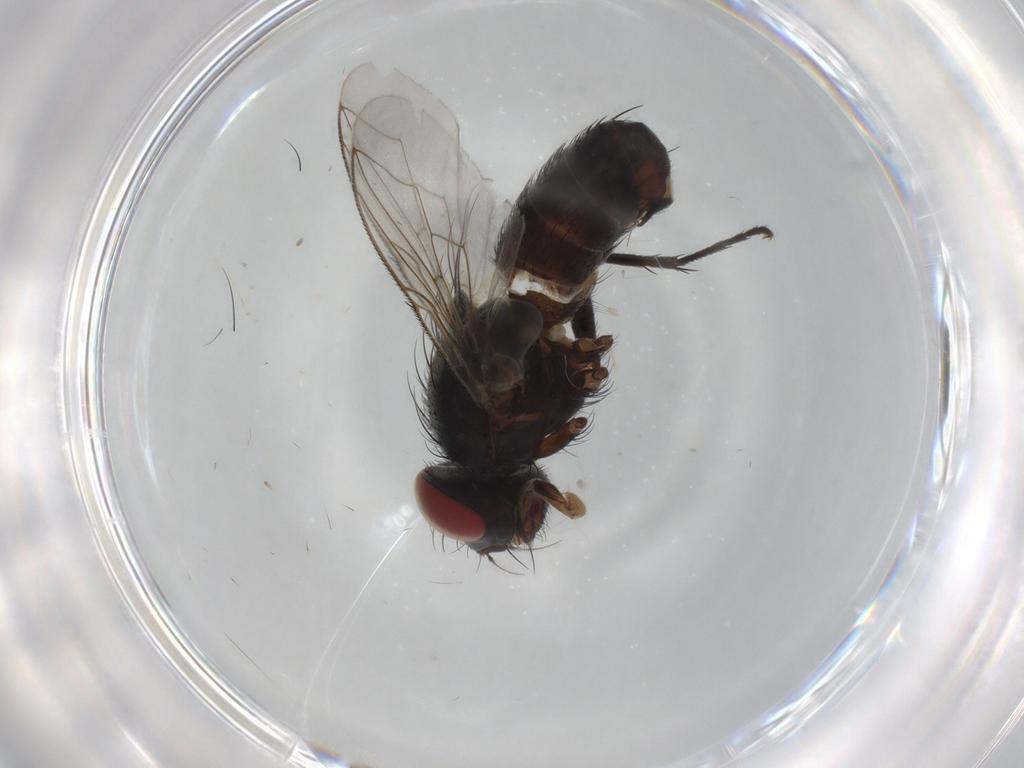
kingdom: Animalia
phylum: Arthropoda
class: Insecta
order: Diptera
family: Sarcophagidae
